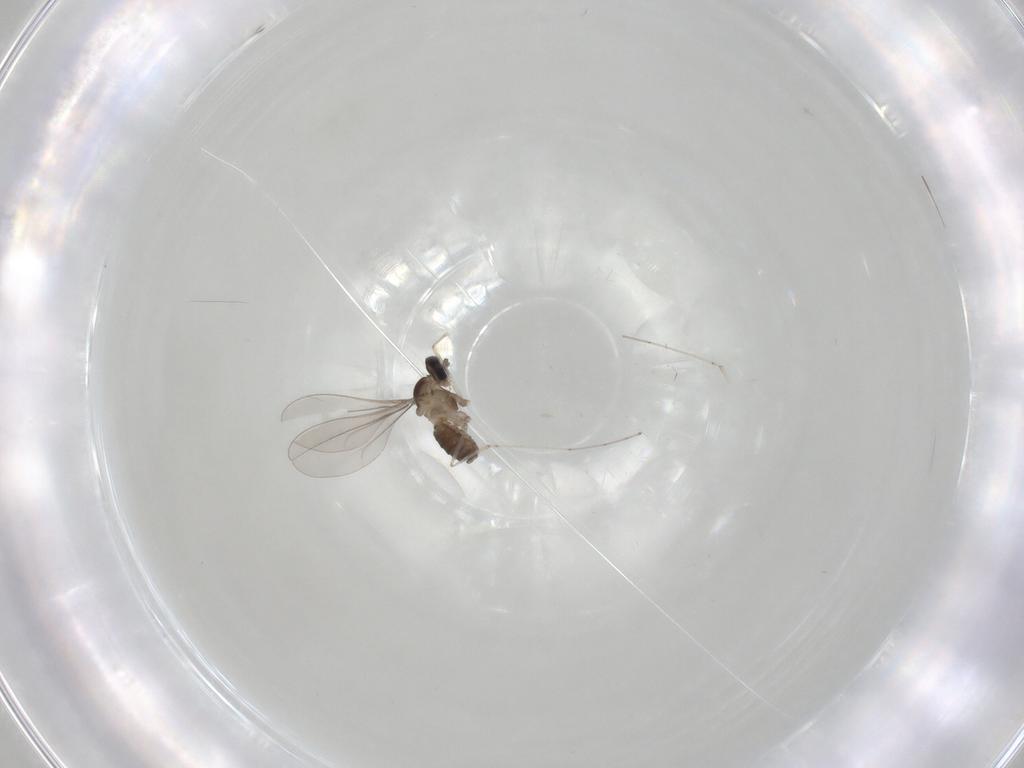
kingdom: Animalia
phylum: Arthropoda
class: Insecta
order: Diptera
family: Cecidomyiidae
